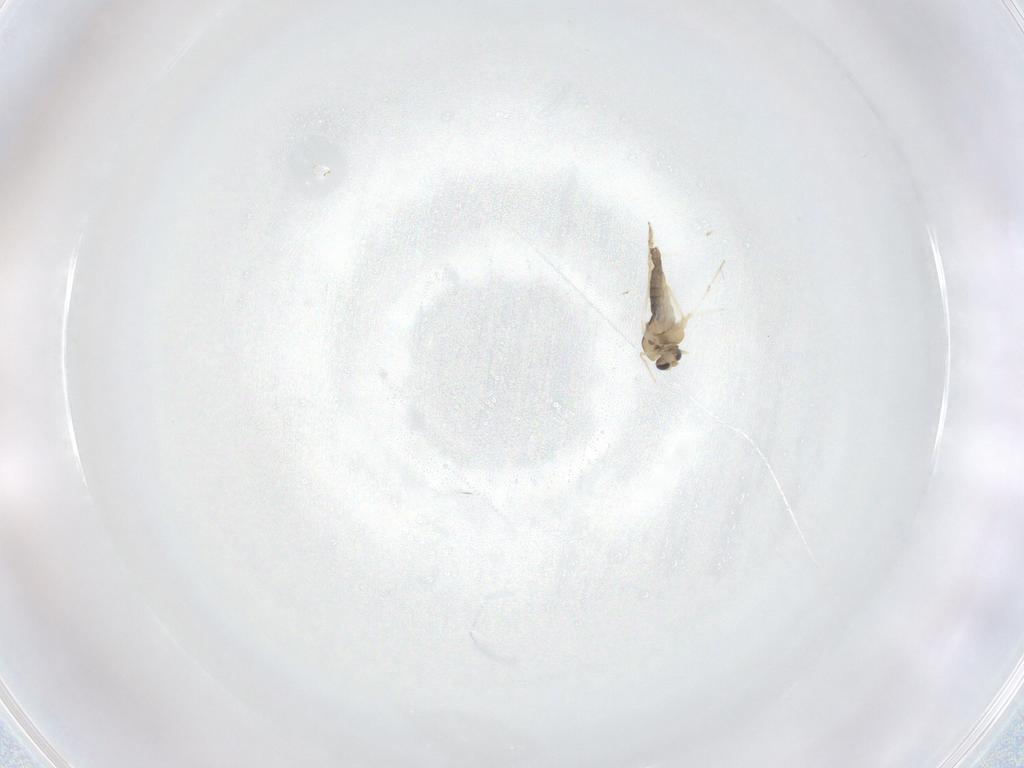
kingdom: Animalia
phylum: Arthropoda
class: Insecta
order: Diptera
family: Chironomidae
